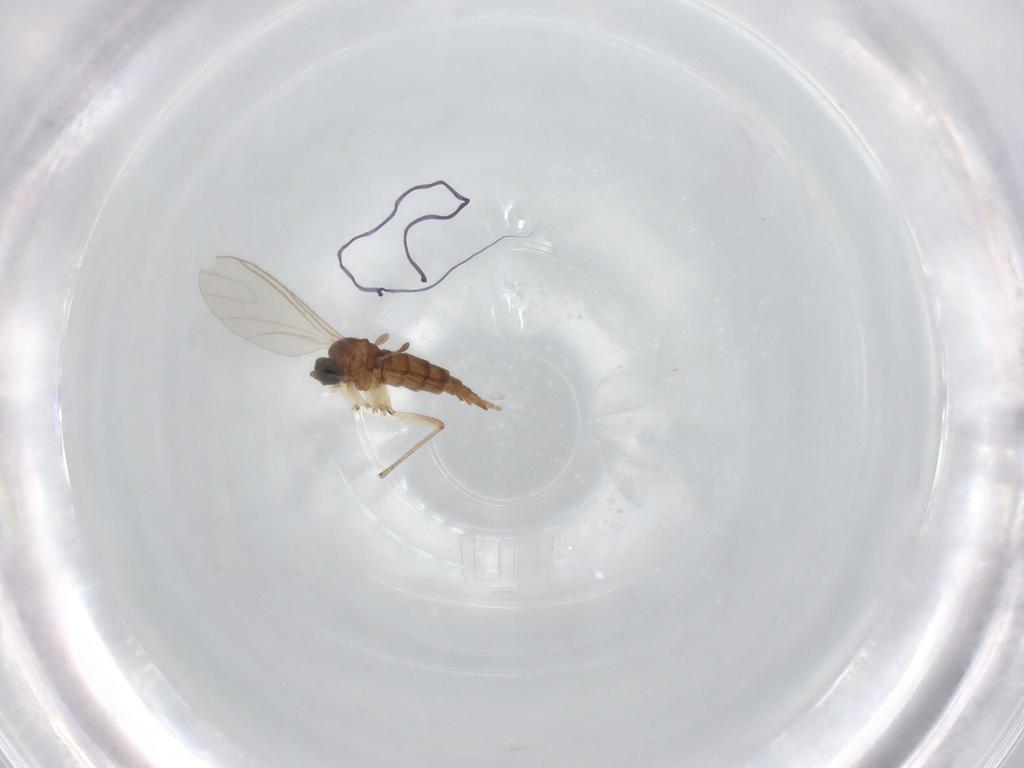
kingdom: Animalia
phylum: Arthropoda
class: Insecta
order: Diptera
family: Sciaridae
